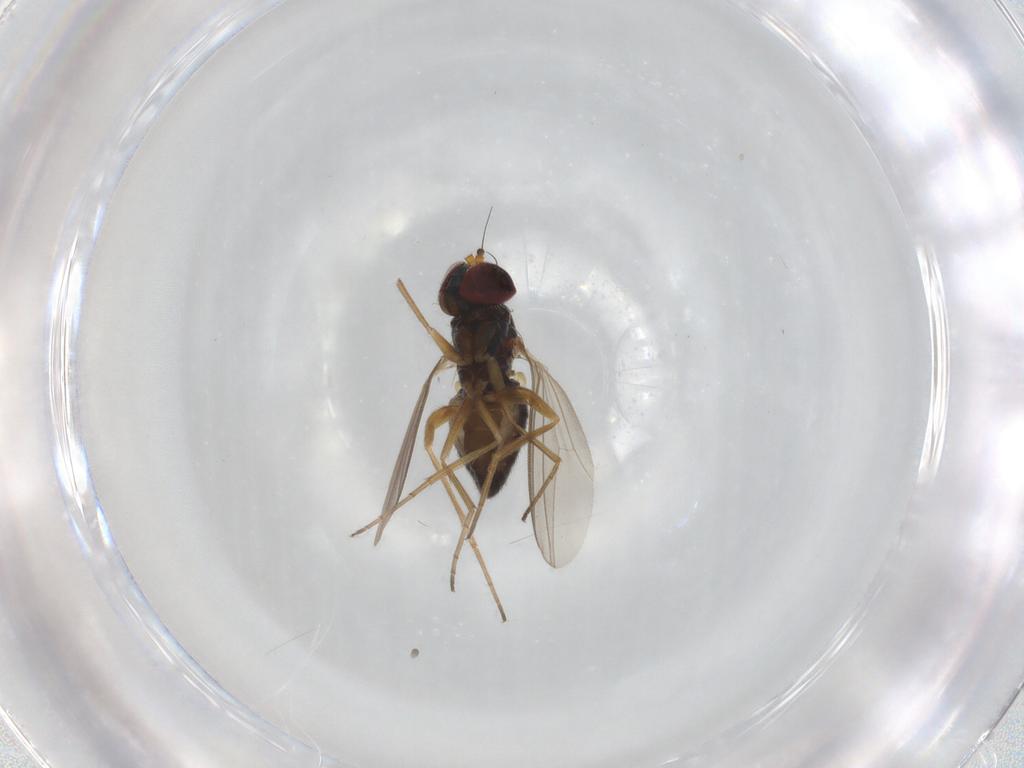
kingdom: Animalia
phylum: Arthropoda
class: Insecta
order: Diptera
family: Dolichopodidae
